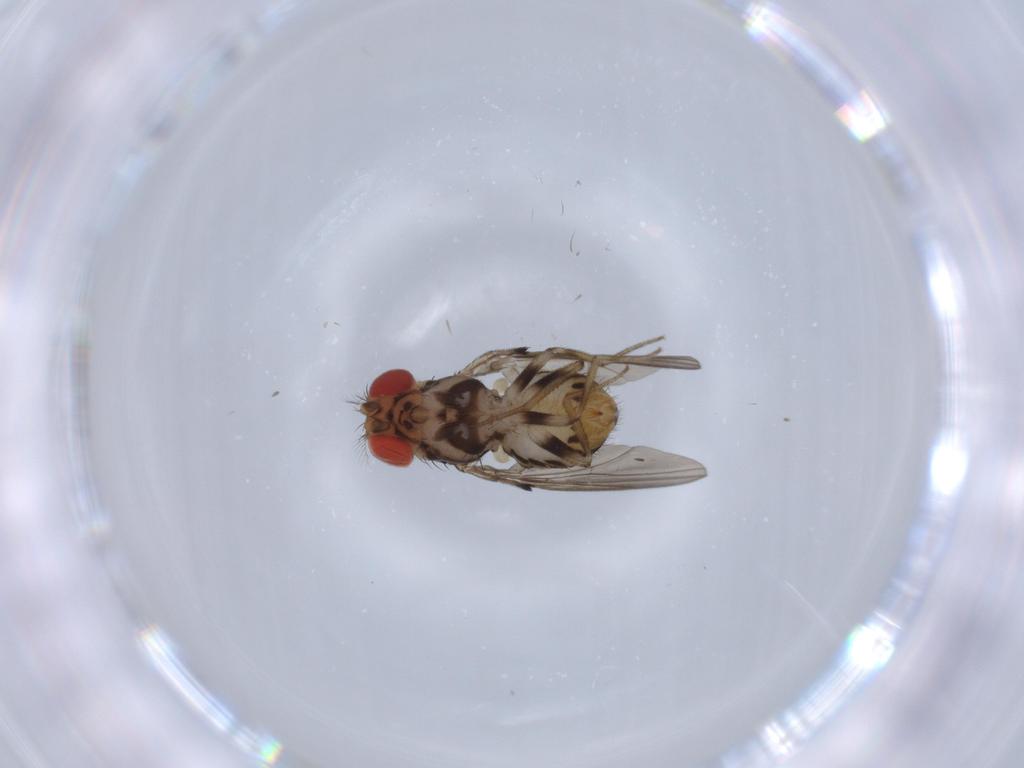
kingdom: Animalia
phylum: Arthropoda
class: Insecta
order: Diptera
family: Drosophilidae
